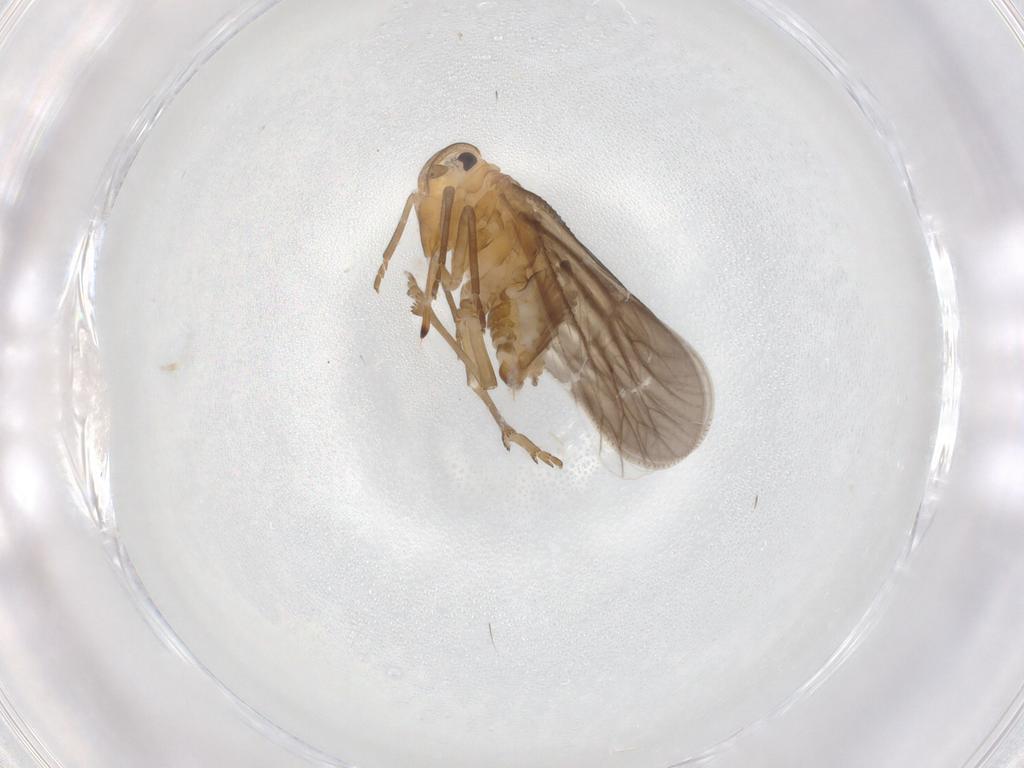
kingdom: Animalia
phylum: Arthropoda
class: Insecta
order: Hemiptera
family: Meenoplidae
